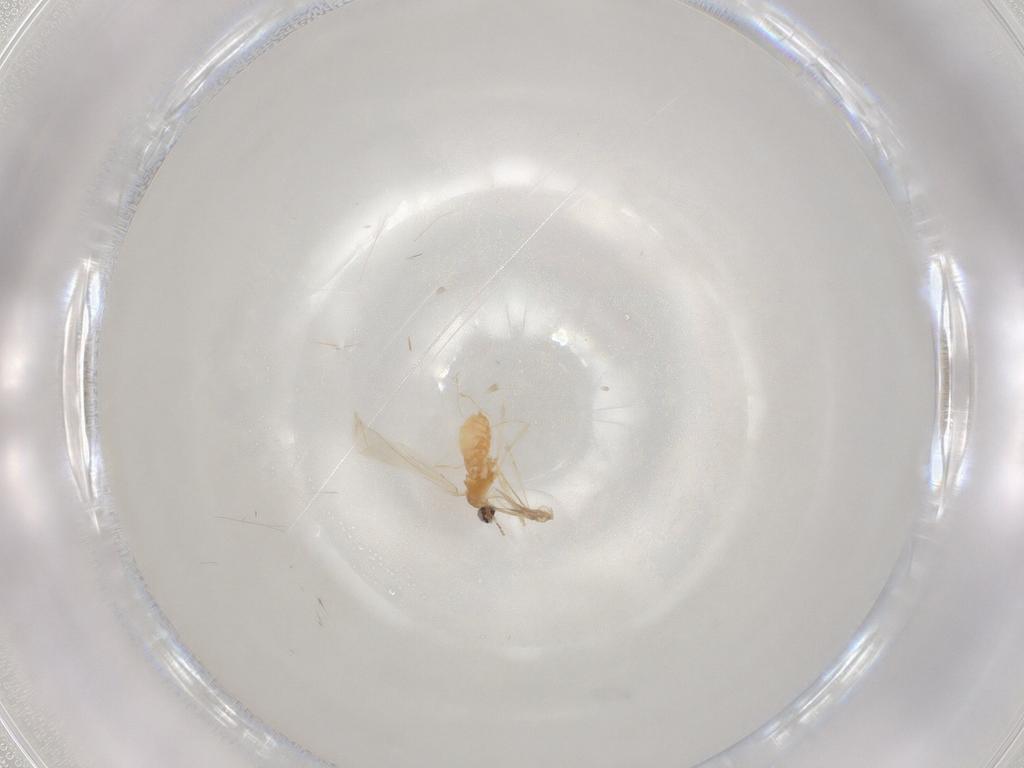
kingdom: Animalia
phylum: Arthropoda
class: Insecta
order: Diptera
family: Cecidomyiidae
